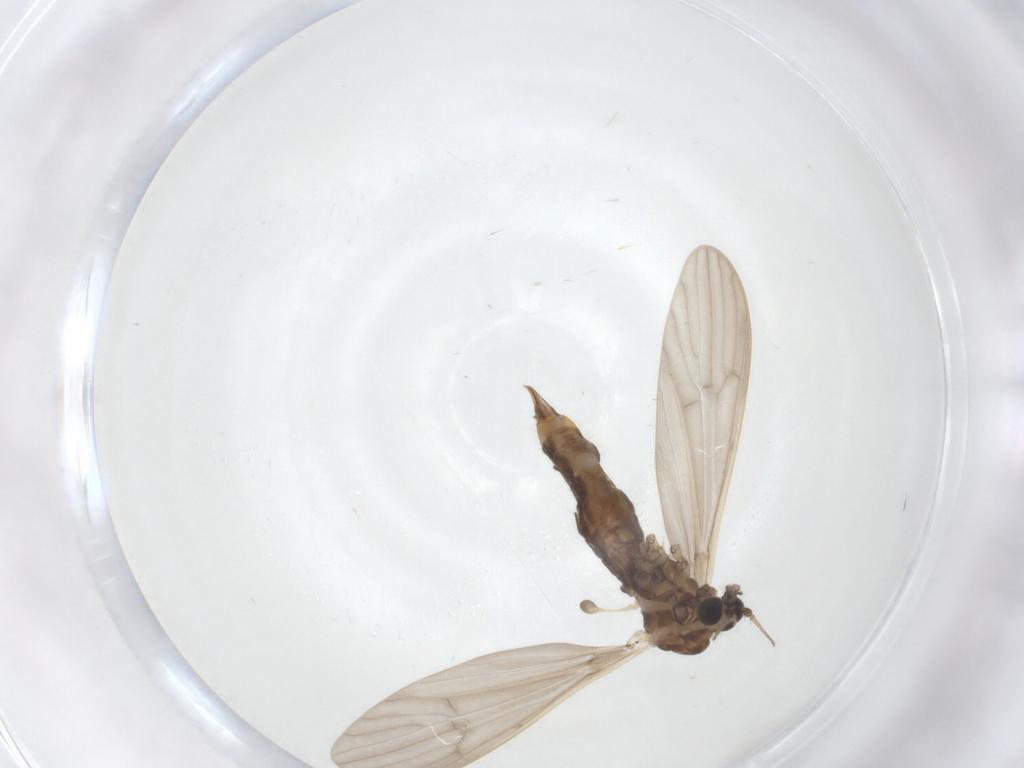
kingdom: Animalia
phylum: Arthropoda
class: Insecta
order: Diptera
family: Limoniidae
